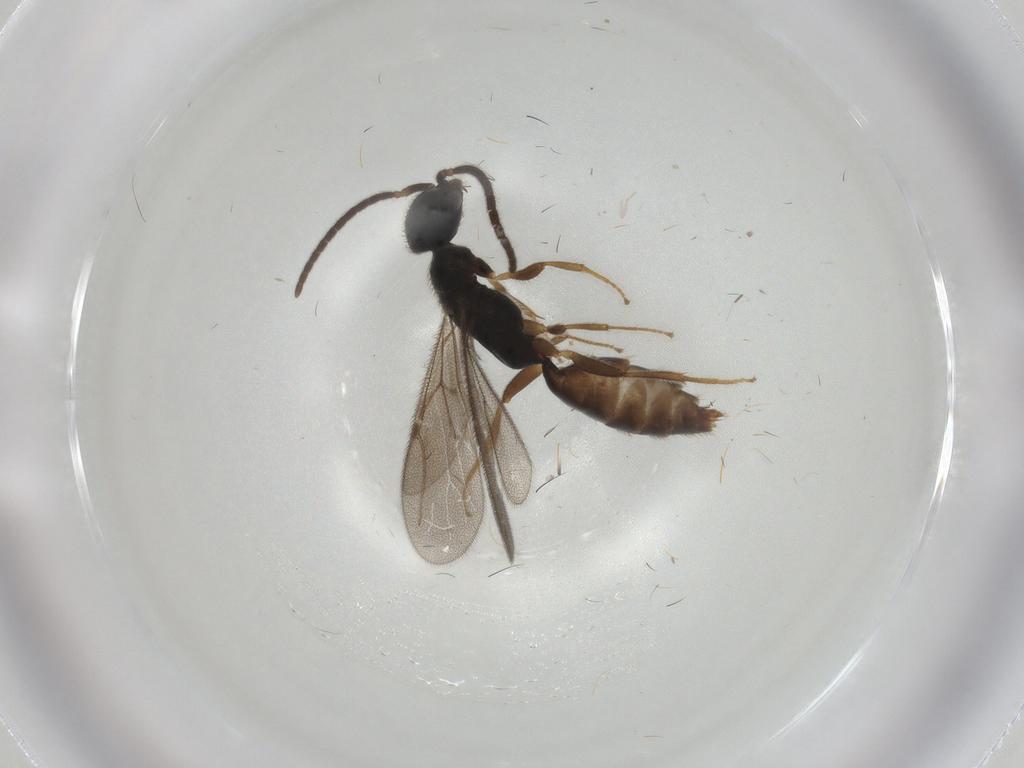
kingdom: Animalia
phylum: Arthropoda
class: Insecta
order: Hymenoptera
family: Bethylidae
